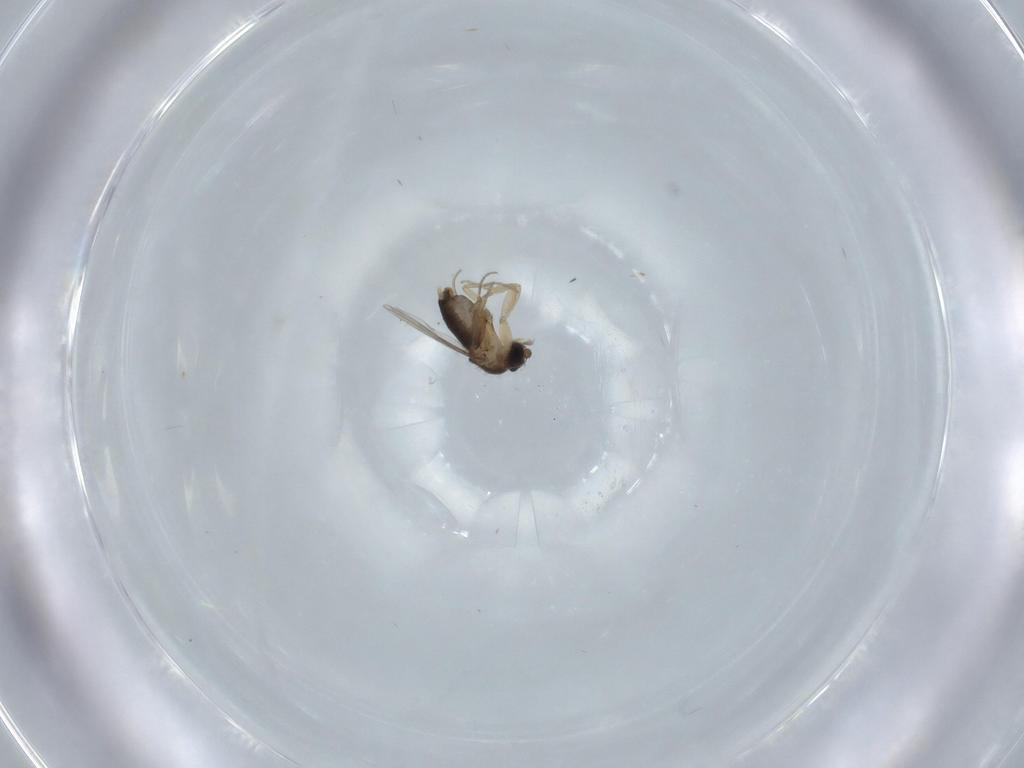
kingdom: Animalia
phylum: Arthropoda
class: Insecta
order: Diptera
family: Phoridae
